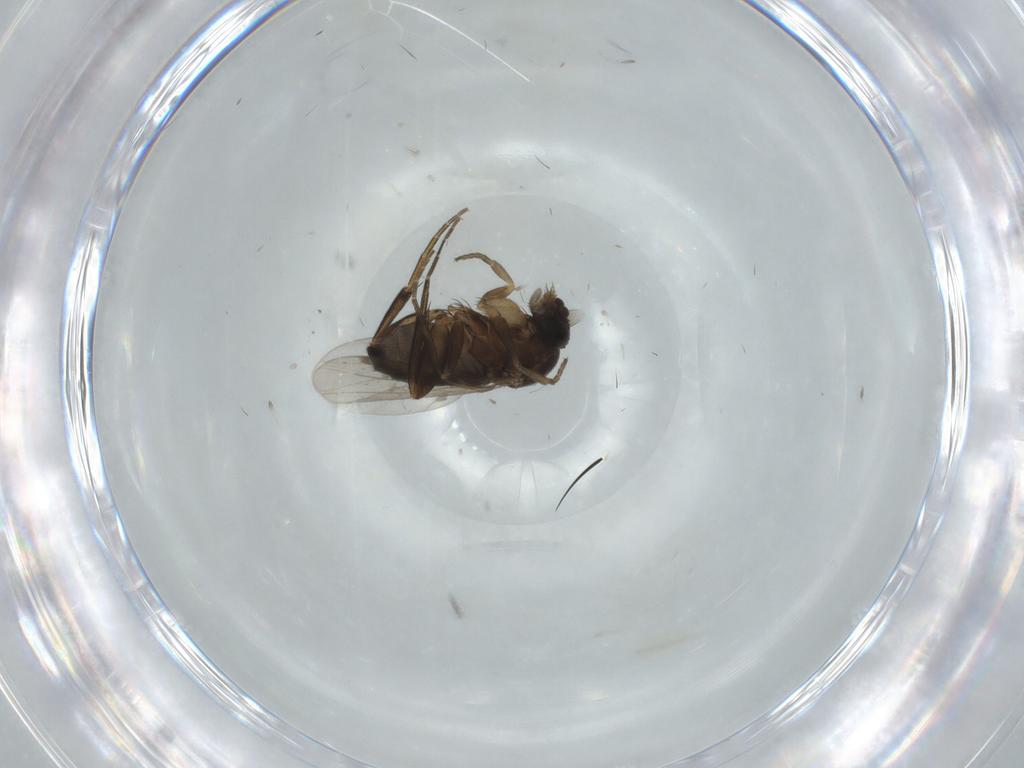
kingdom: Animalia
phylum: Arthropoda
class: Insecta
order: Diptera
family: Phoridae
